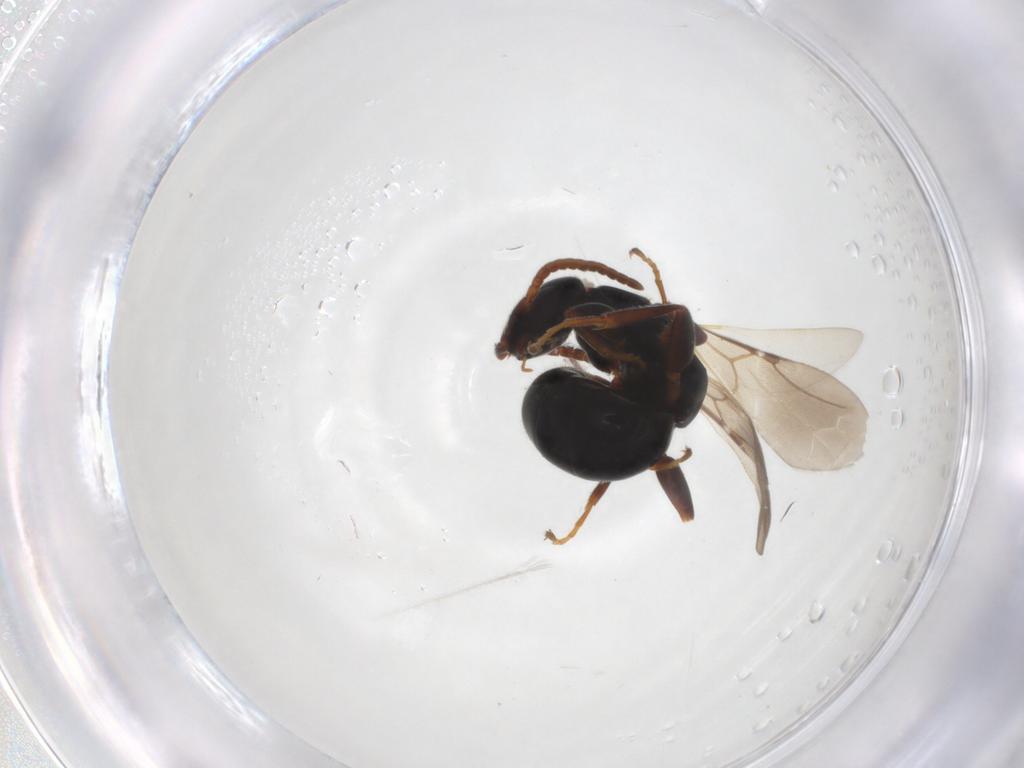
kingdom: Animalia
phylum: Arthropoda
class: Insecta
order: Hymenoptera
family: Bethylidae
